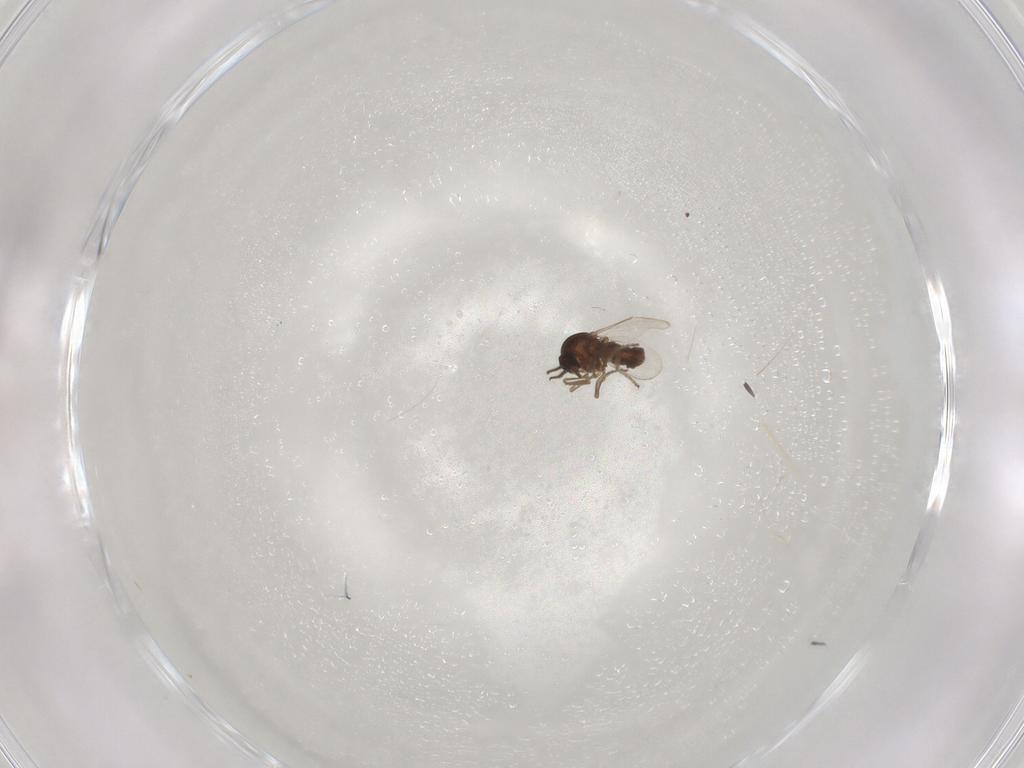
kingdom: Animalia
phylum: Arthropoda
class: Insecta
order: Diptera
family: Ceratopogonidae
